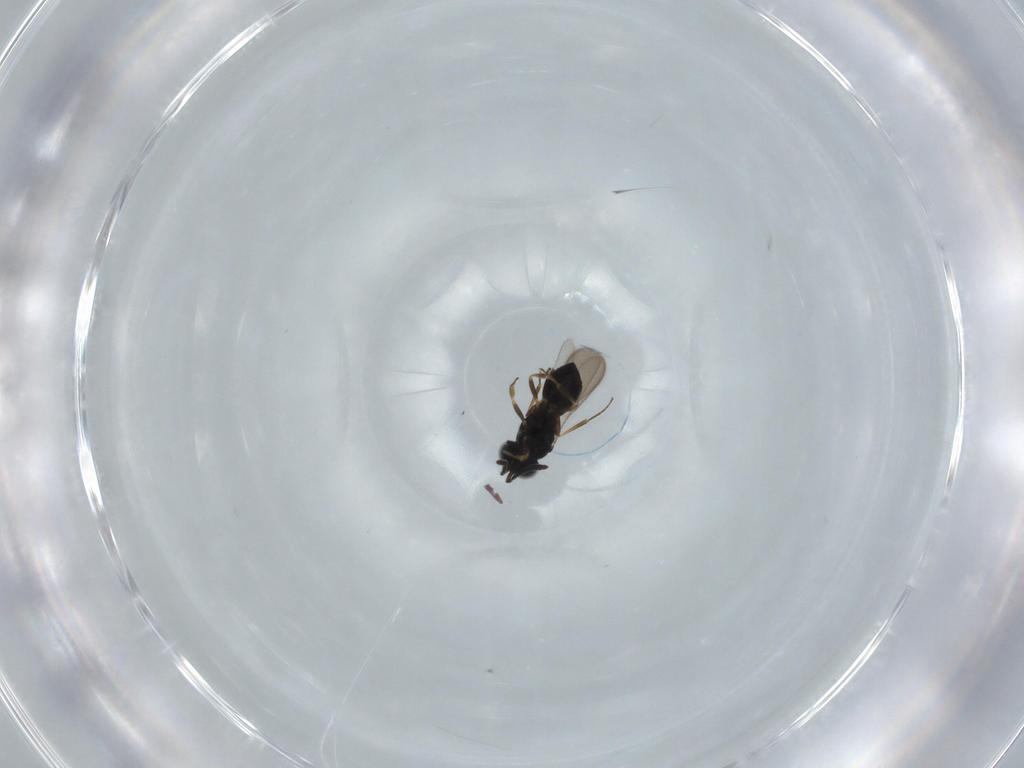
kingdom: Animalia
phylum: Arthropoda
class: Insecta
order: Hymenoptera
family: Scelionidae
